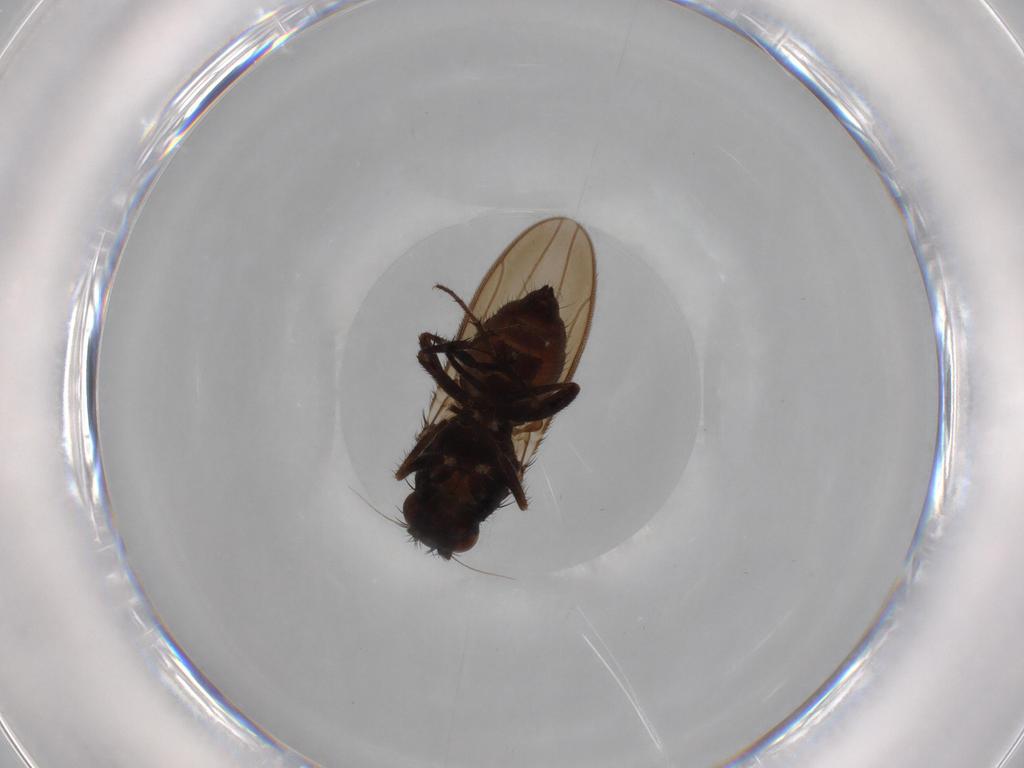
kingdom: Animalia
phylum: Arthropoda
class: Insecta
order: Diptera
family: Sphaeroceridae
